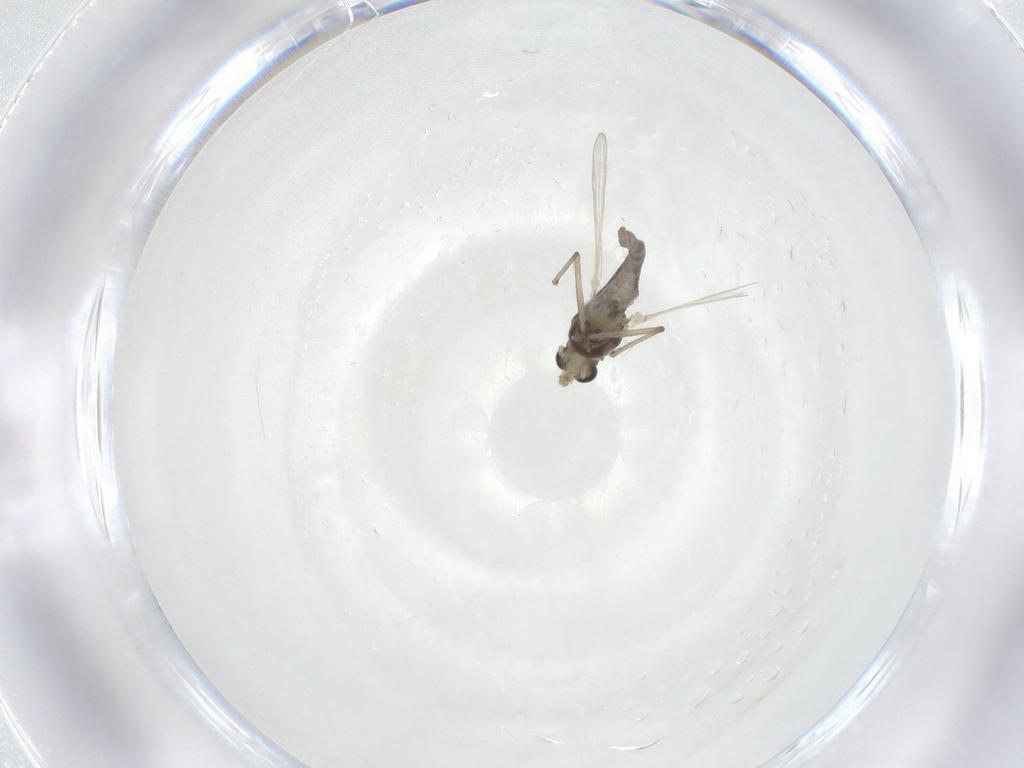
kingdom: Animalia
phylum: Arthropoda
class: Insecta
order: Diptera
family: Chironomidae
